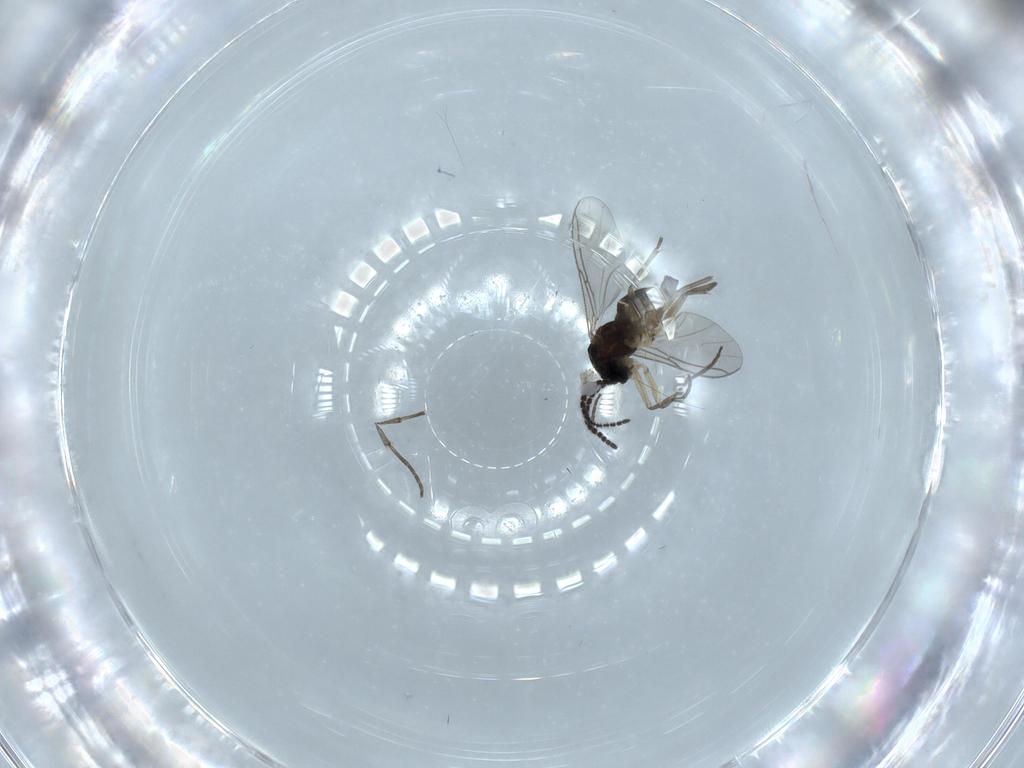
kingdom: Animalia
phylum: Arthropoda
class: Insecta
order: Diptera
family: Sciaridae
